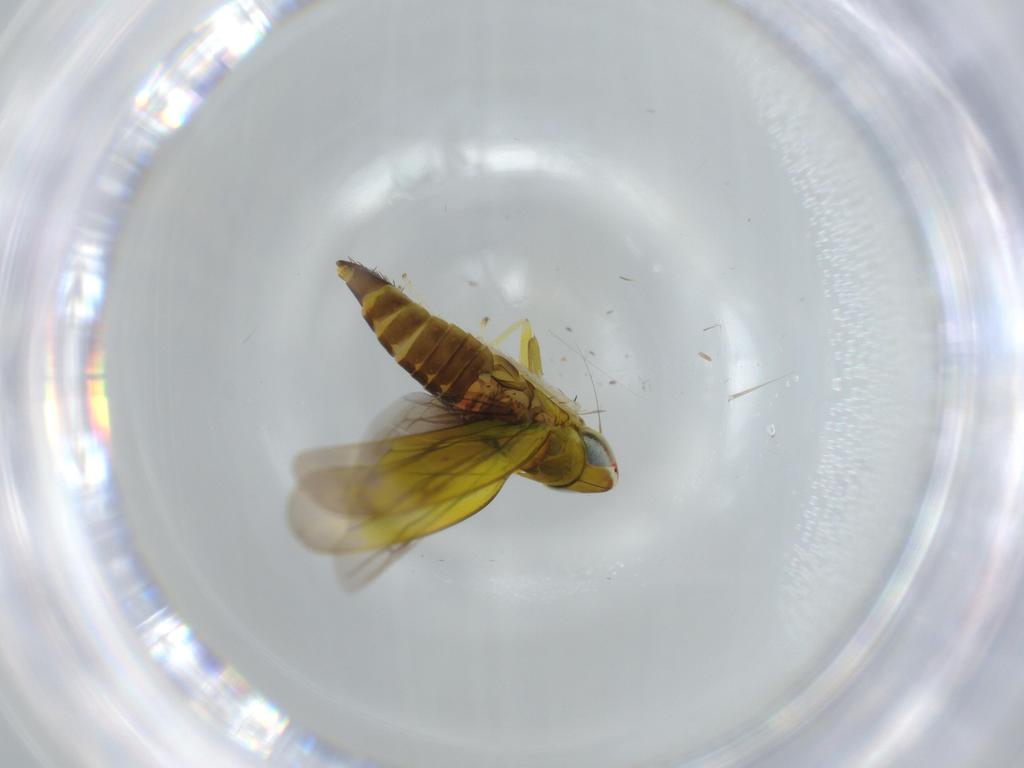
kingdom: Animalia
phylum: Arthropoda
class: Insecta
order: Hemiptera
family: Cicadellidae
